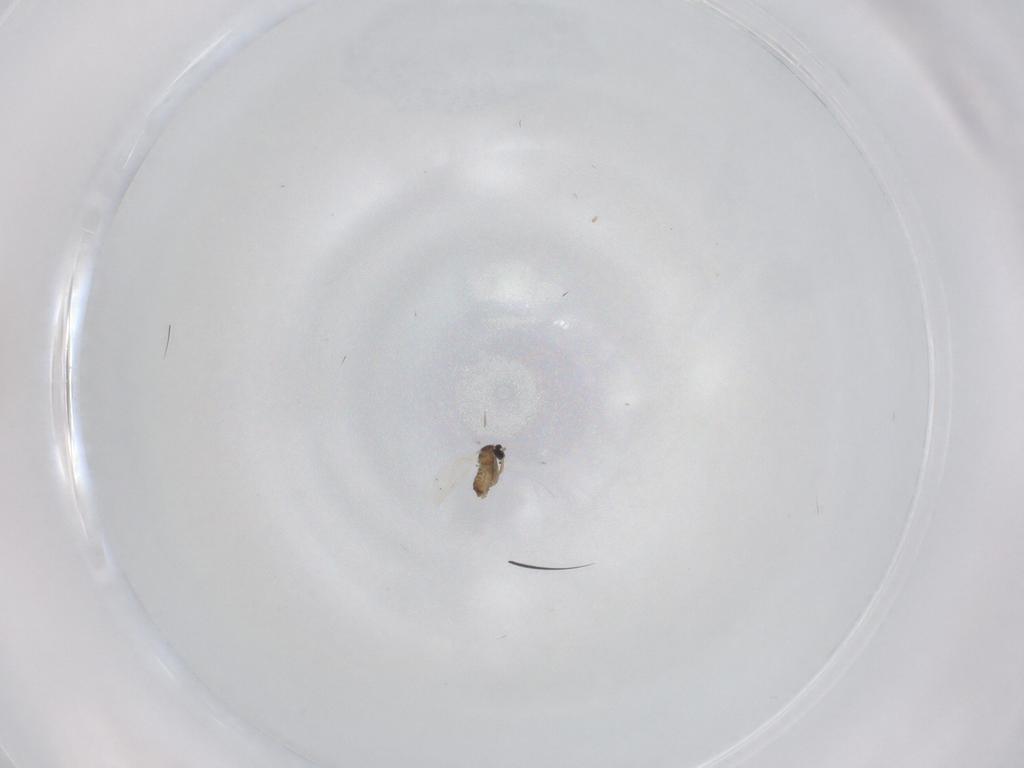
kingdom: Animalia
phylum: Arthropoda
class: Insecta
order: Diptera
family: Cecidomyiidae
